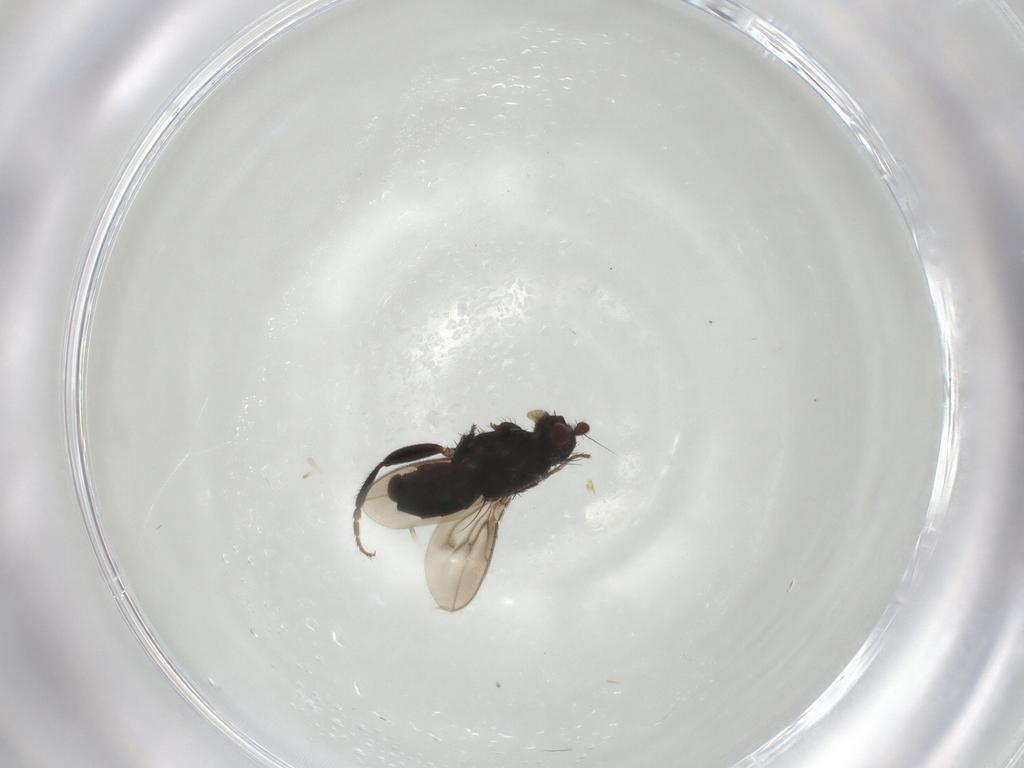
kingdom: Animalia
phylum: Arthropoda
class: Insecta
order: Diptera
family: Sphaeroceridae
